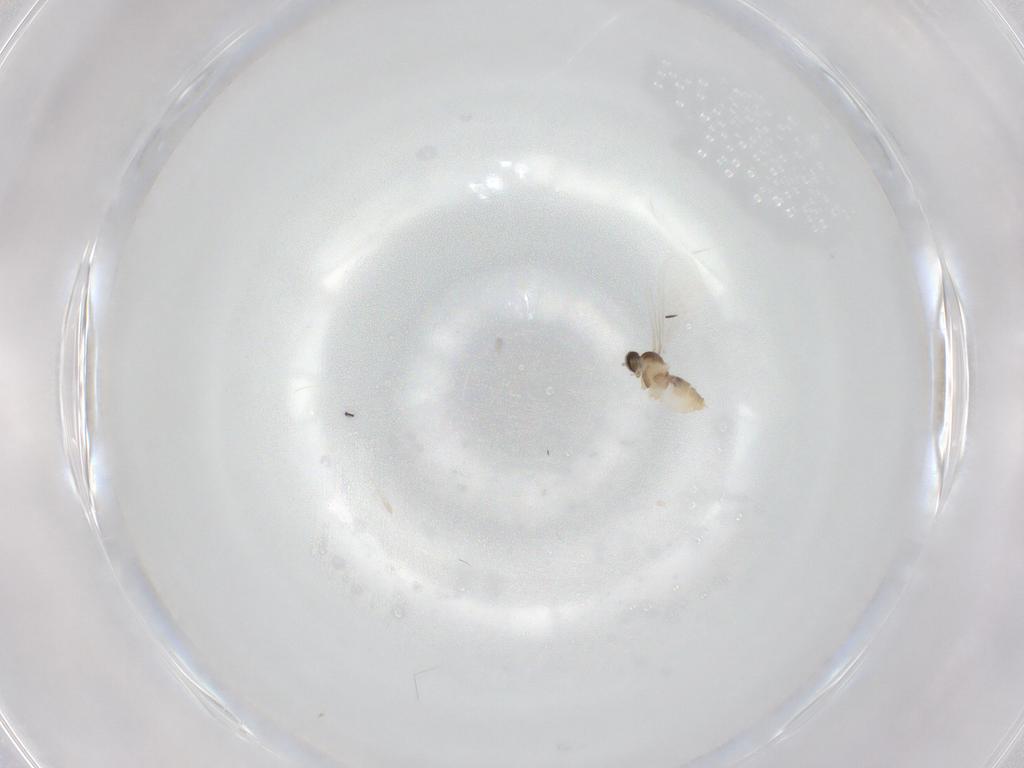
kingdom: Animalia
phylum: Arthropoda
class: Insecta
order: Diptera
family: Cecidomyiidae
